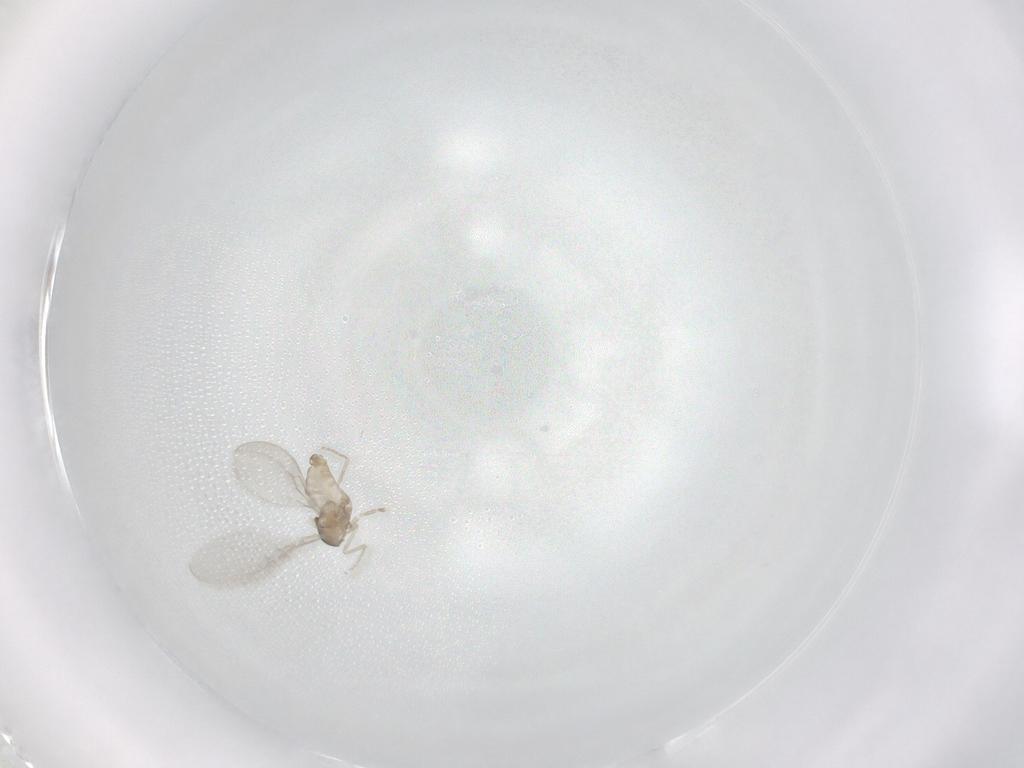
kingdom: Animalia
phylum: Arthropoda
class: Insecta
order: Diptera
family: Cecidomyiidae
